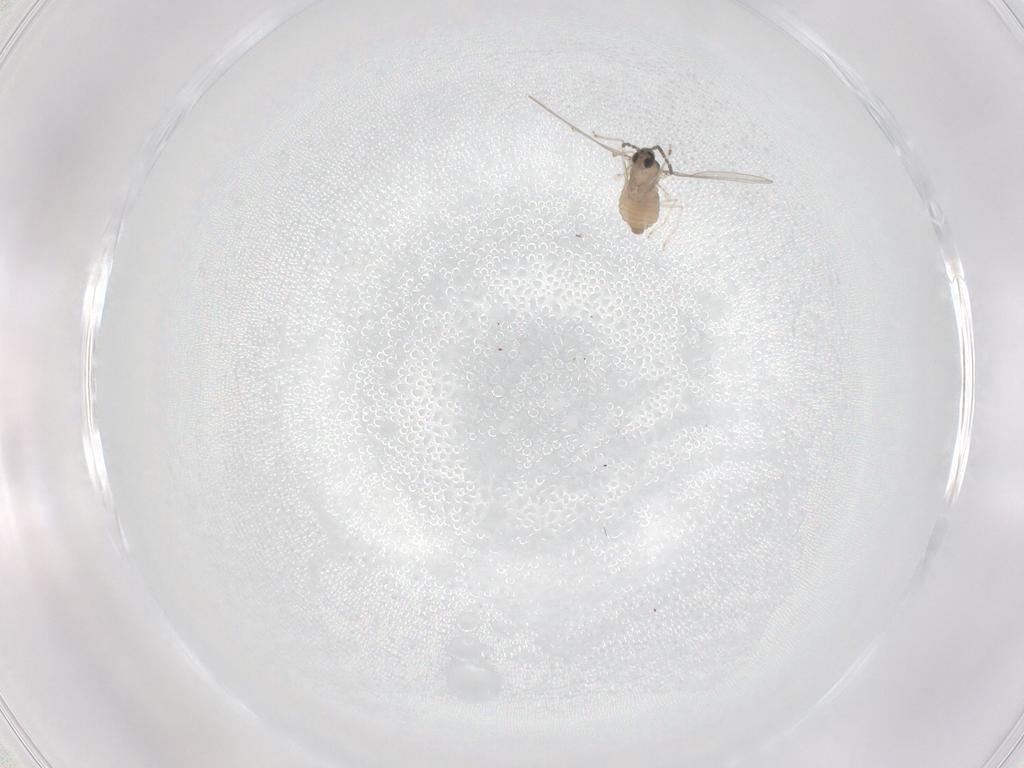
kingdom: Animalia
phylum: Arthropoda
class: Insecta
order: Diptera
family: Cecidomyiidae
